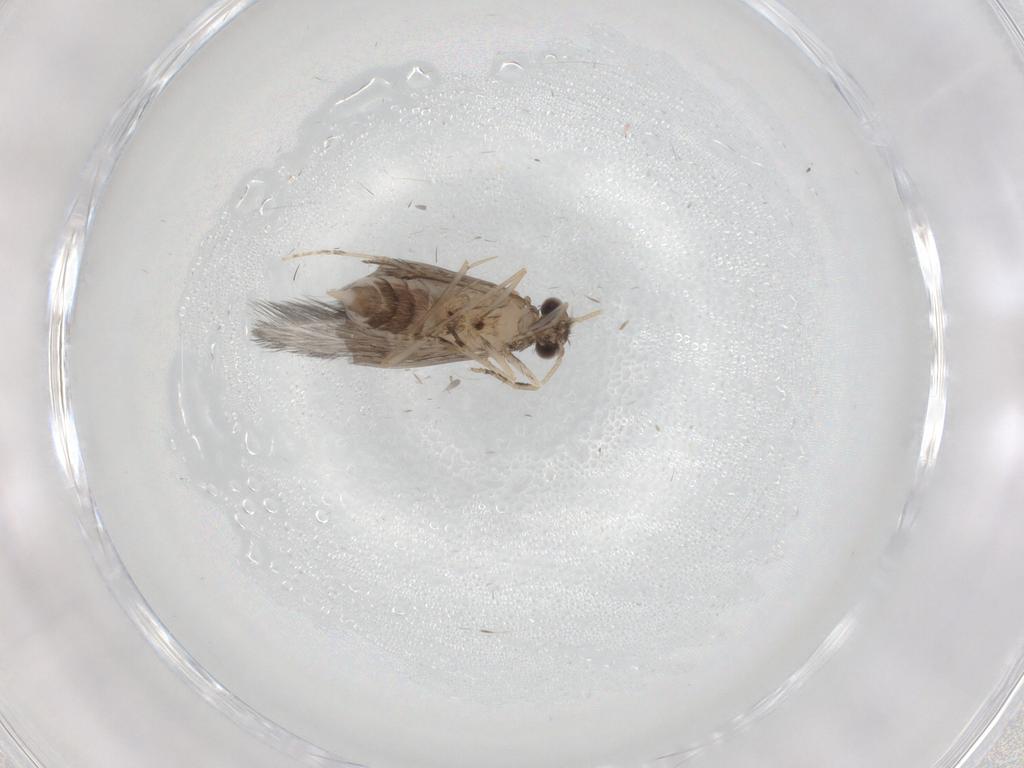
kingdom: Animalia
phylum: Arthropoda
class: Insecta
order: Trichoptera
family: Hydroptilidae
